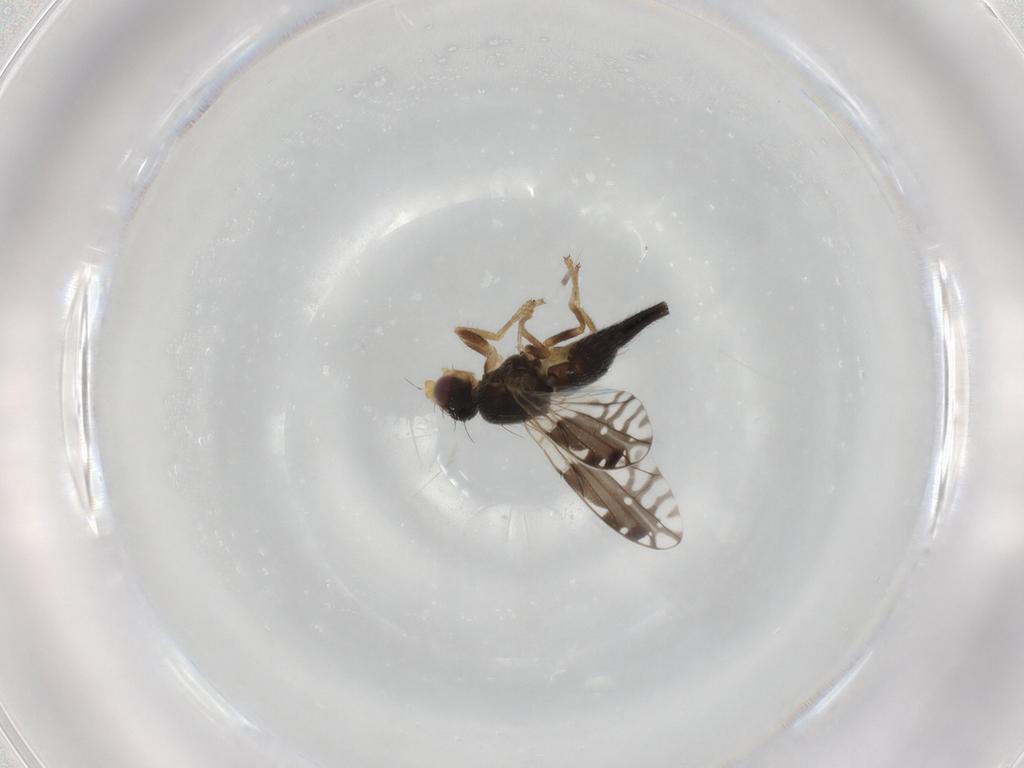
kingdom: Animalia
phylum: Arthropoda
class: Insecta
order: Diptera
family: Tephritidae
